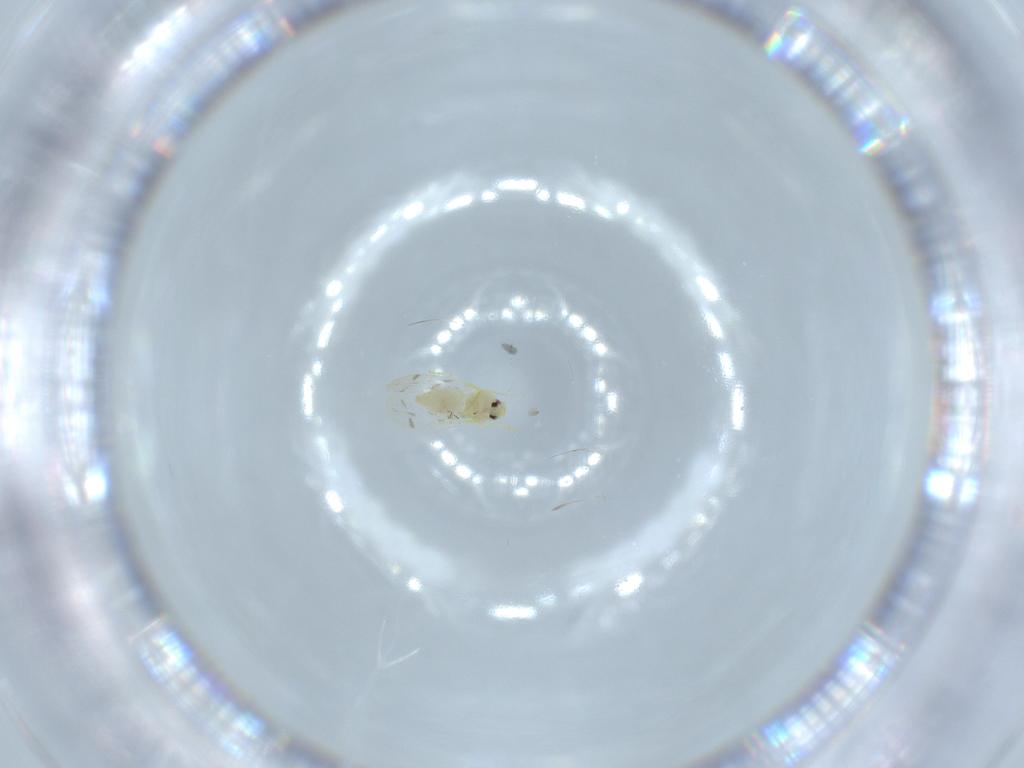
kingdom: Animalia
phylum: Arthropoda
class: Insecta
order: Hemiptera
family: Aleyrodidae
